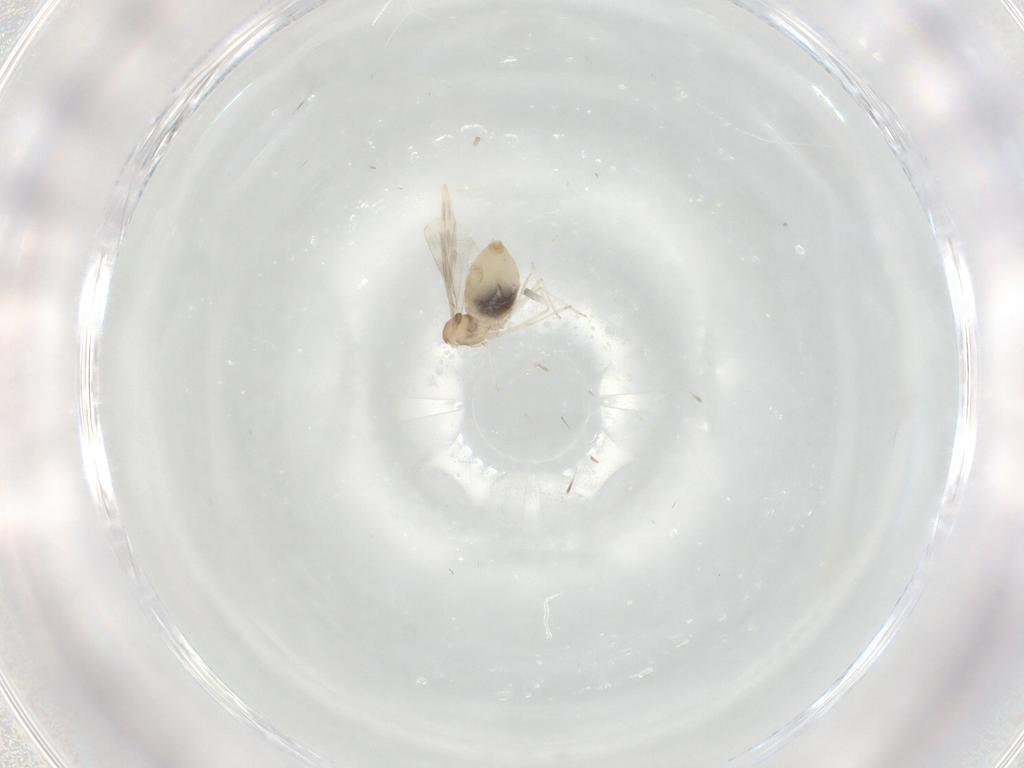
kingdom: Animalia
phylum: Arthropoda
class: Insecta
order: Diptera
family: Cecidomyiidae
